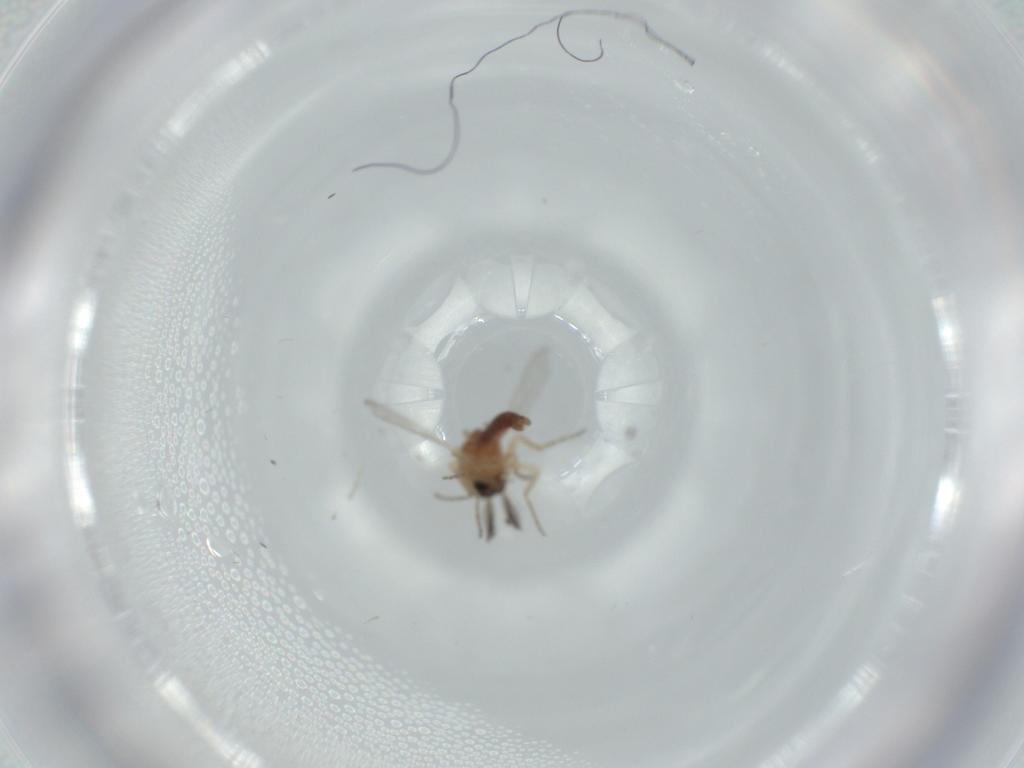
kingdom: Animalia
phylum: Arthropoda
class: Insecta
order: Diptera
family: Ceratopogonidae
